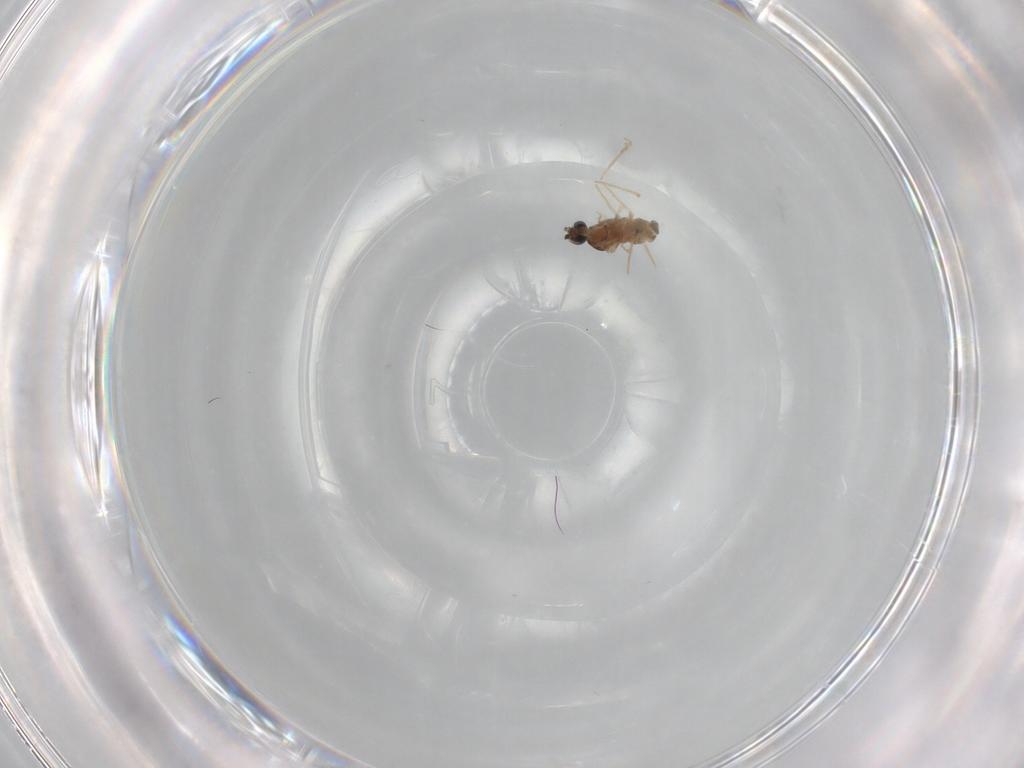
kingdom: Animalia
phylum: Arthropoda
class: Insecta
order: Diptera
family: Cecidomyiidae
